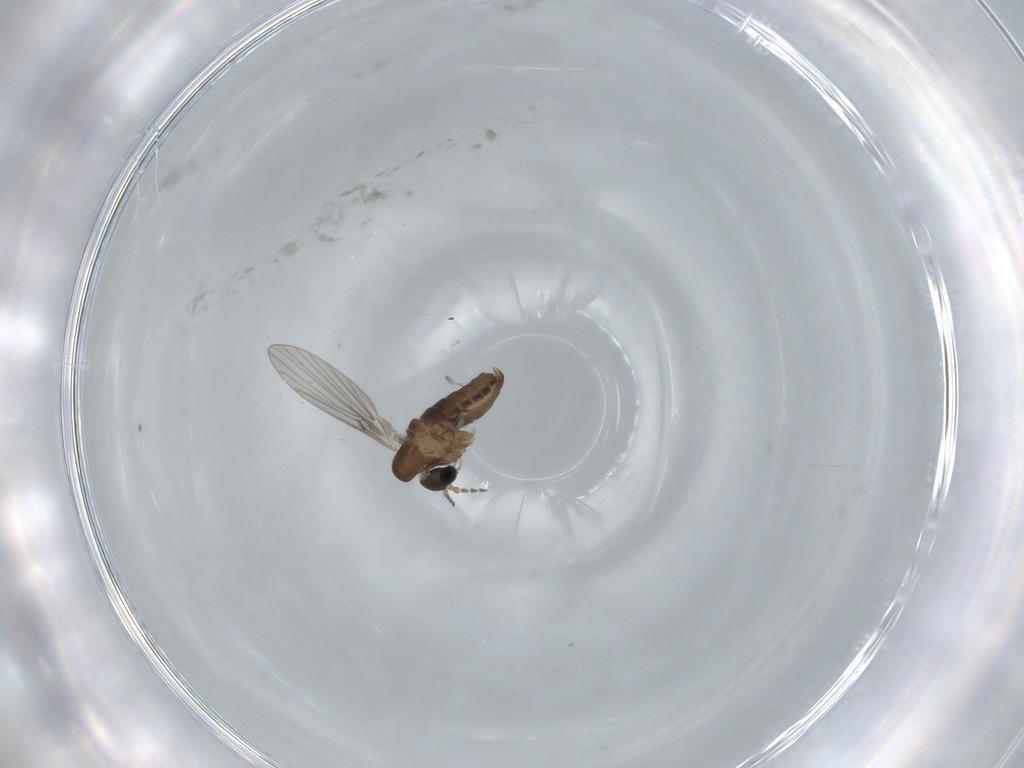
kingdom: Animalia
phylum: Arthropoda
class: Insecta
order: Diptera
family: Psychodidae
